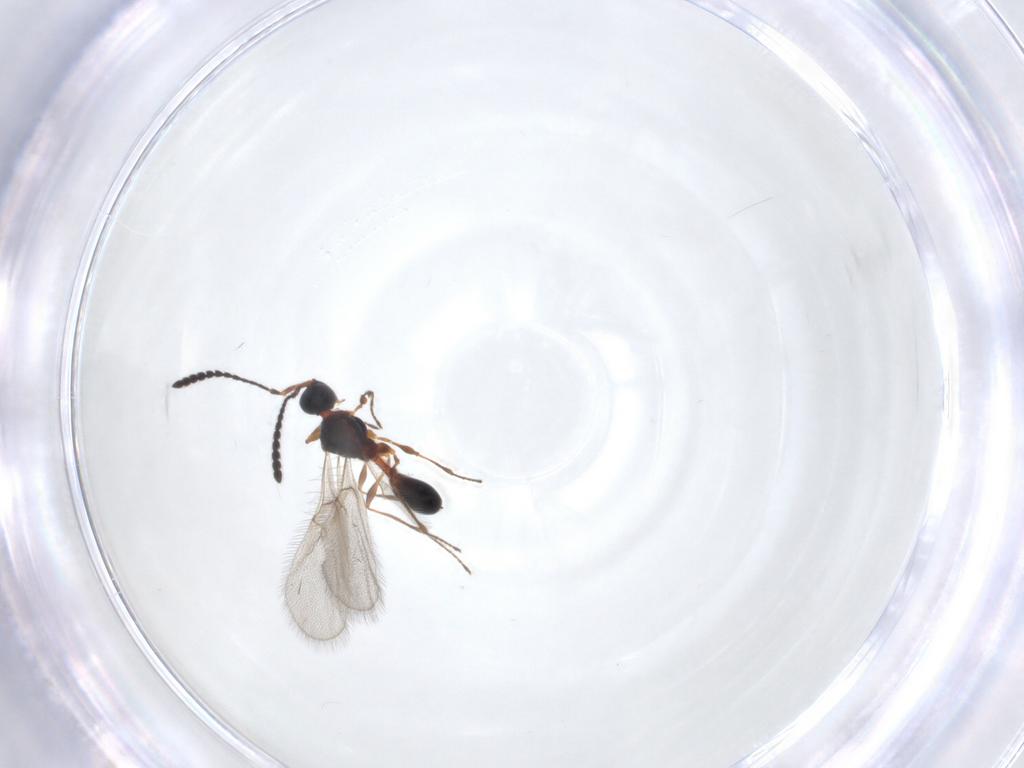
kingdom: Animalia
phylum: Arthropoda
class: Insecta
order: Hymenoptera
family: Diapriidae
